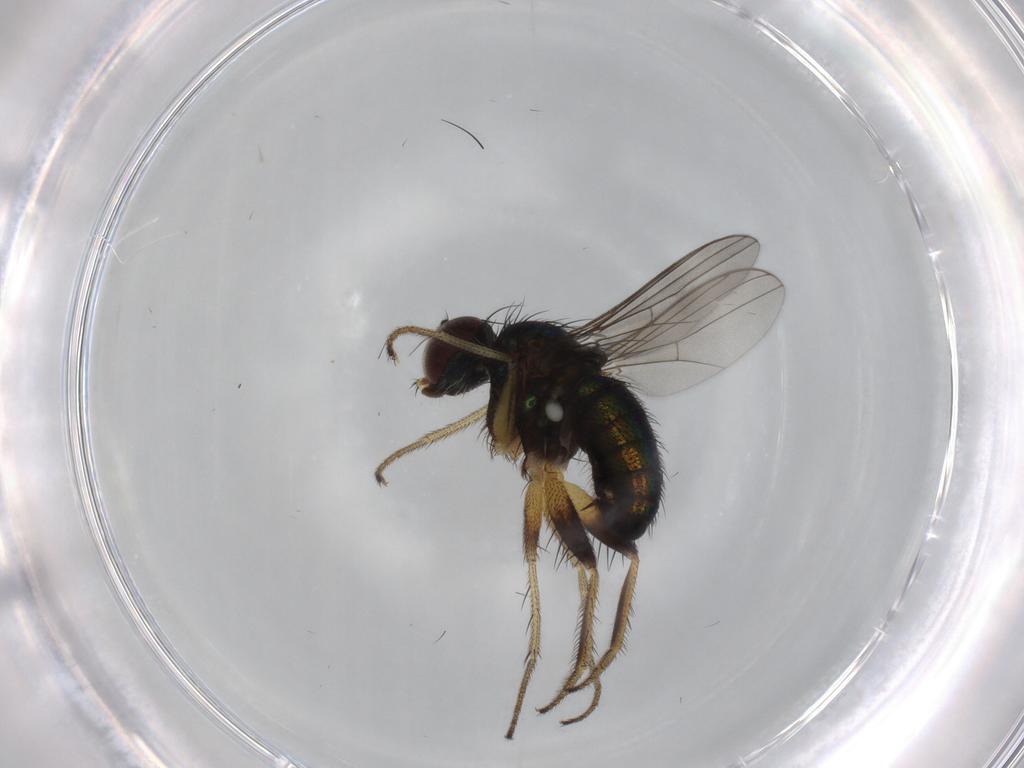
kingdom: Animalia
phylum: Arthropoda
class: Insecta
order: Diptera
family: Dolichopodidae
